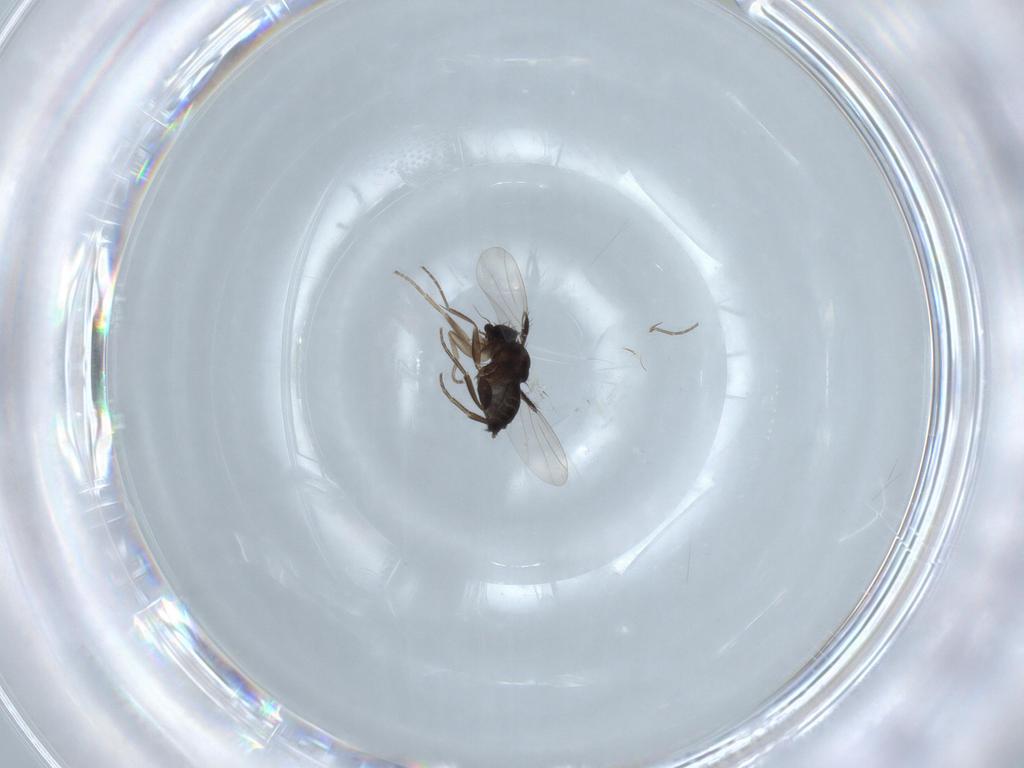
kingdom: Animalia
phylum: Arthropoda
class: Insecta
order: Diptera
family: Phoridae
